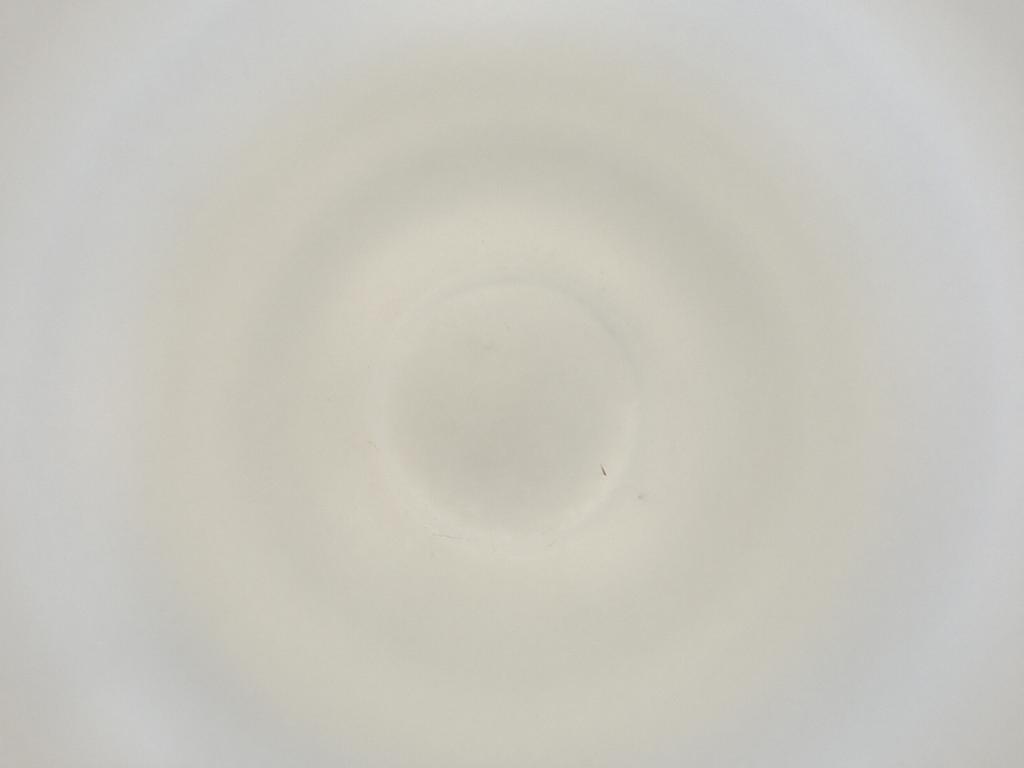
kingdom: Animalia
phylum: Arthropoda
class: Insecta
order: Diptera
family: Cecidomyiidae
